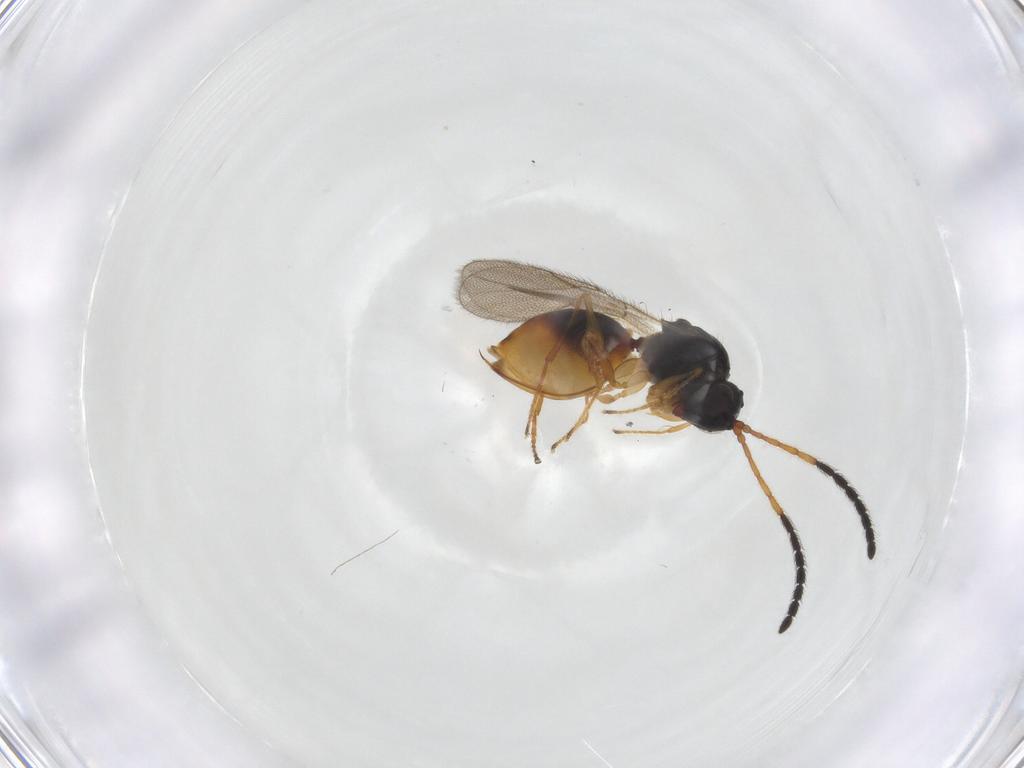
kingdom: Animalia
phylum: Arthropoda
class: Insecta
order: Hymenoptera
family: Figitidae
